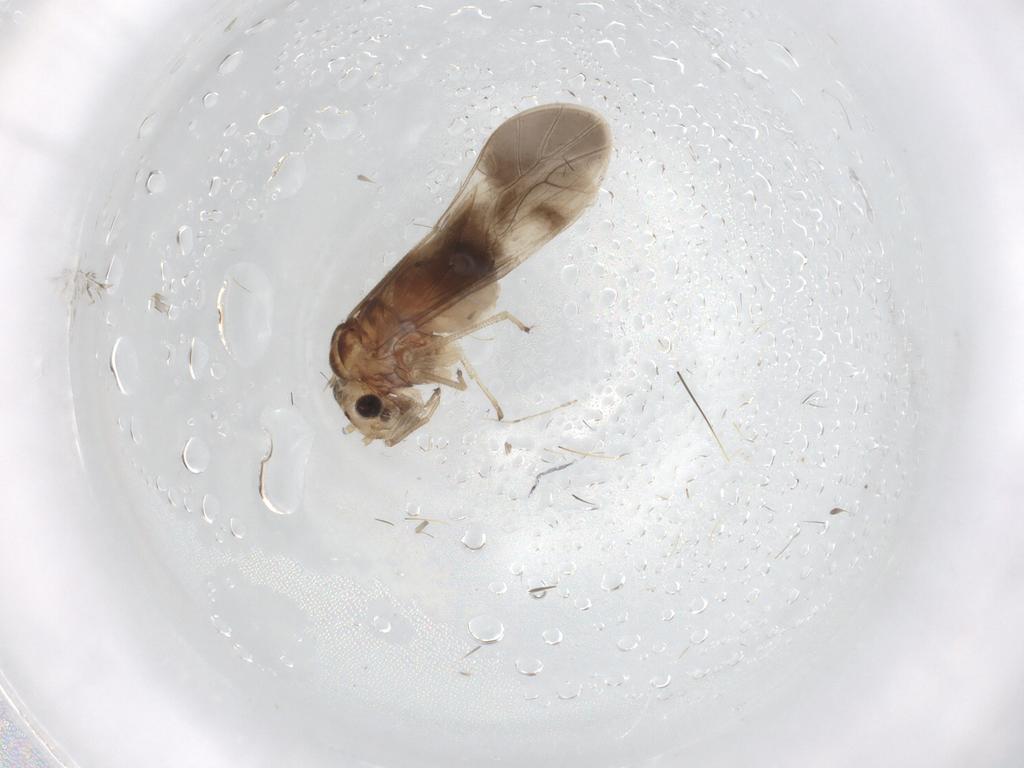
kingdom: Animalia
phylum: Arthropoda
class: Insecta
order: Psocodea
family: Ectopsocidae
